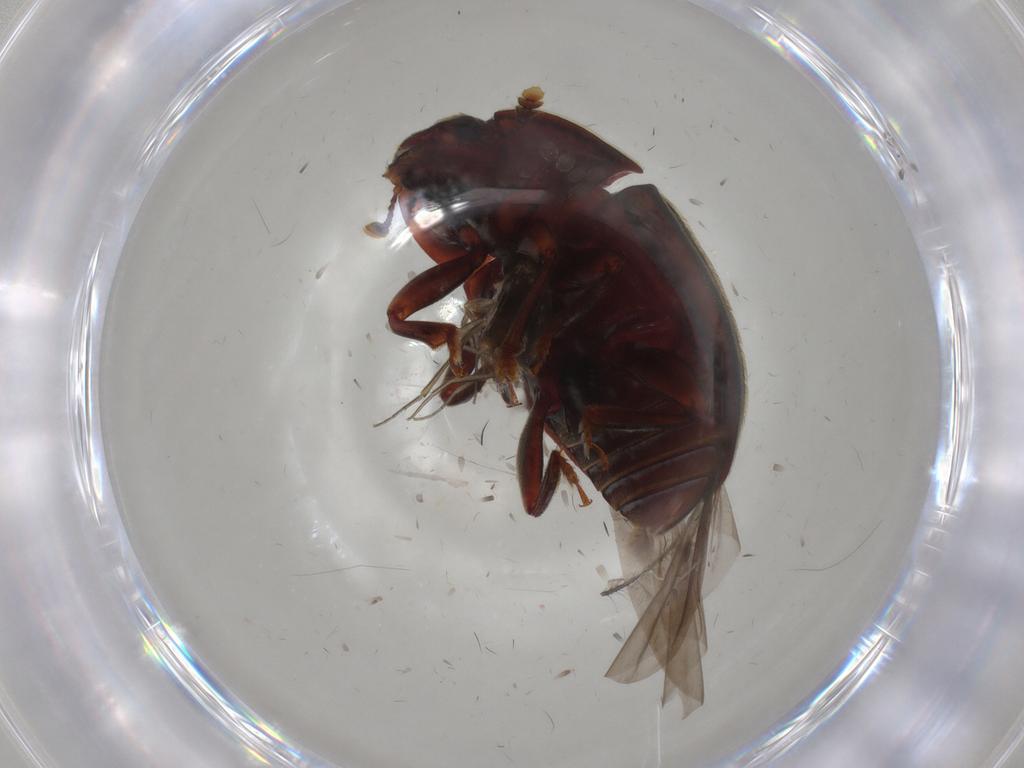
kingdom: Animalia
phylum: Arthropoda
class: Insecta
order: Coleoptera
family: Nitidulidae
